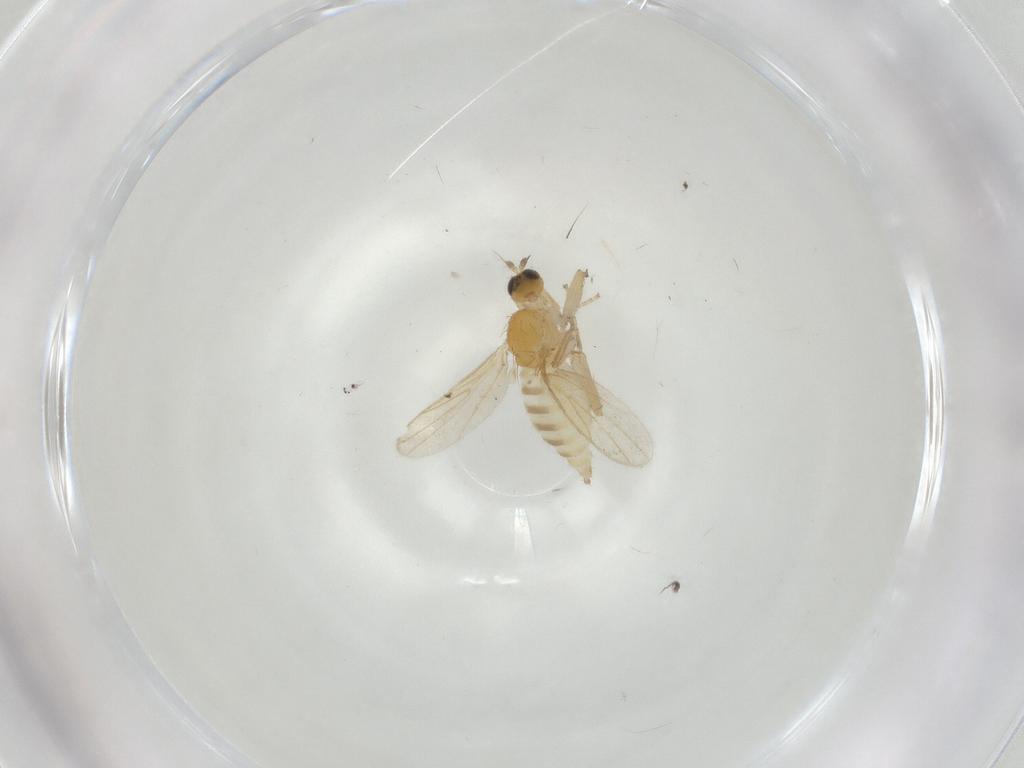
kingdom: Animalia
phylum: Arthropoda
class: Insecta
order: Diptera
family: Hybotidae
